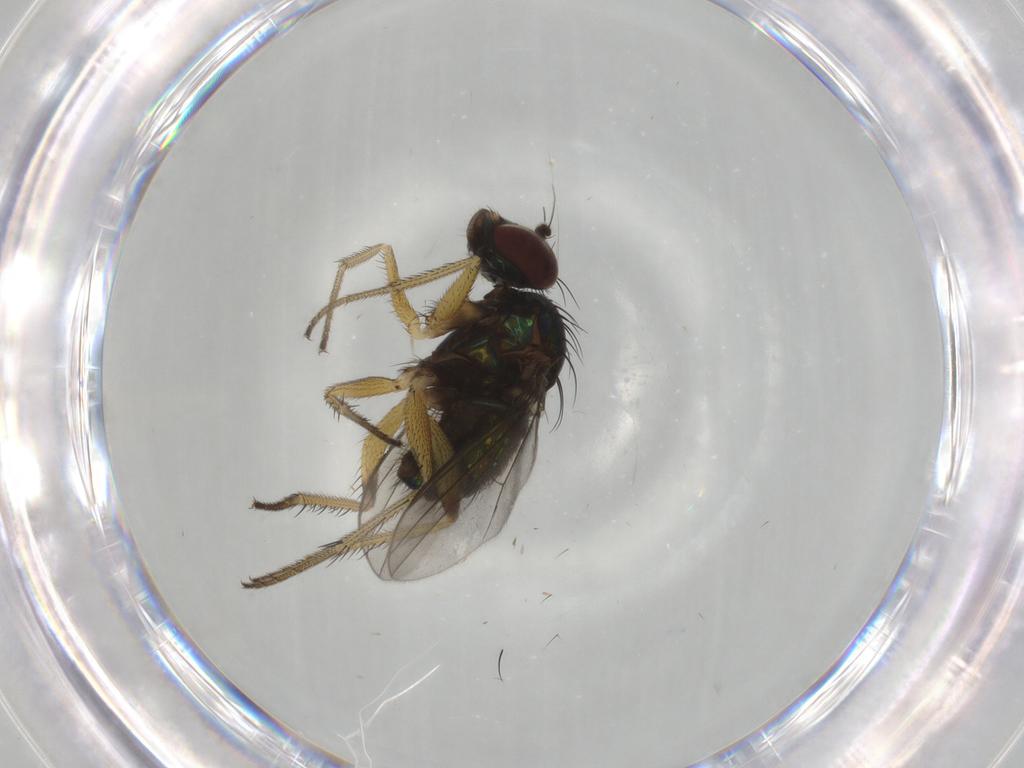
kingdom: Animalia
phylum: Arthropoda
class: Insecta
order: Diptera
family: Dolichopodidae
